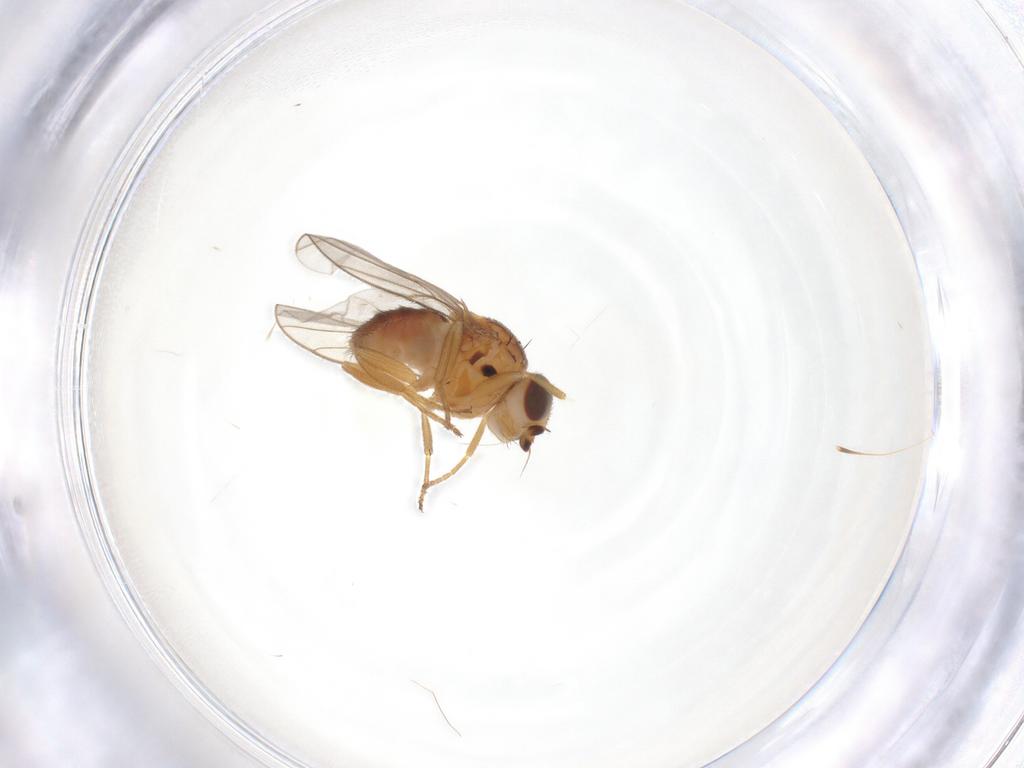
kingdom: Animalia
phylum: Arthropoda
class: Insecta
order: Diptera
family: Chloropidae
